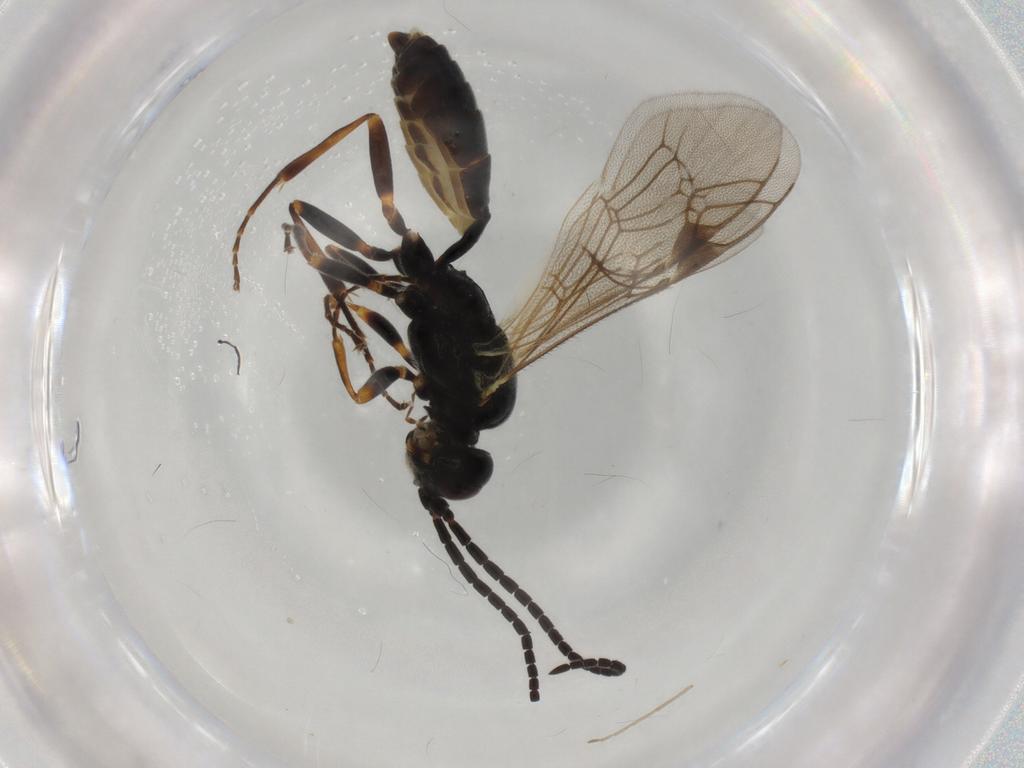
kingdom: Animalia
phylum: Arthropoda
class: Insecta
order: Hymenoptera
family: Ichneumonidae
